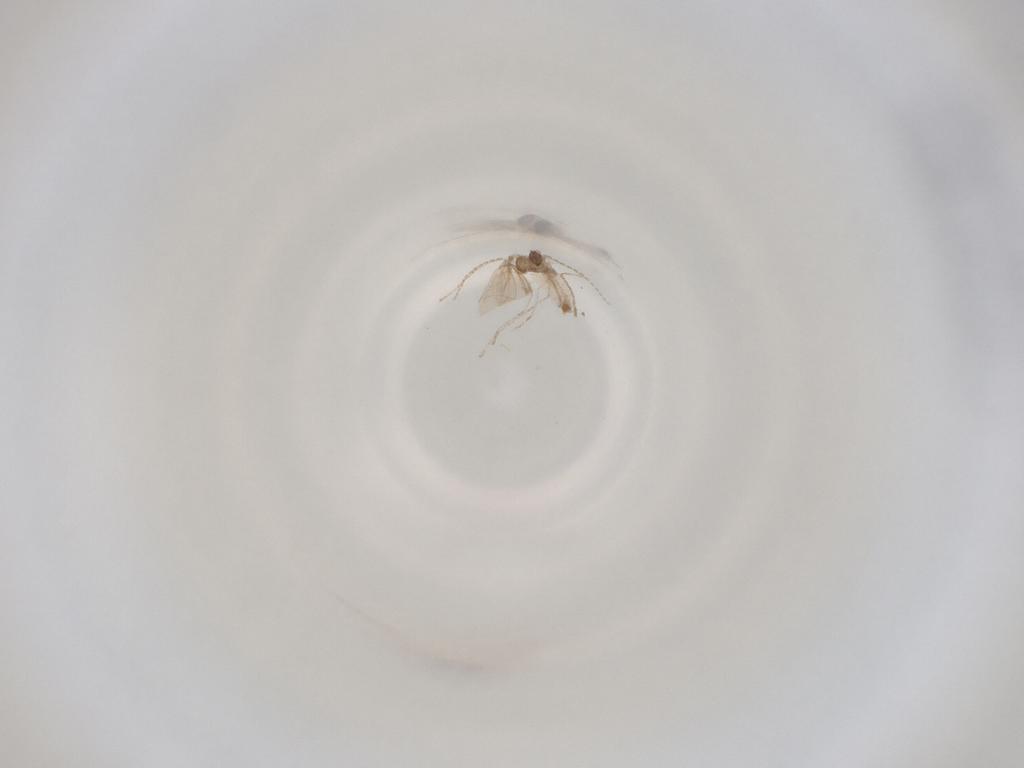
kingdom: Animalia
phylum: Arthropoda
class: Insecta
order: Diptera
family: Cecidomyiidae
